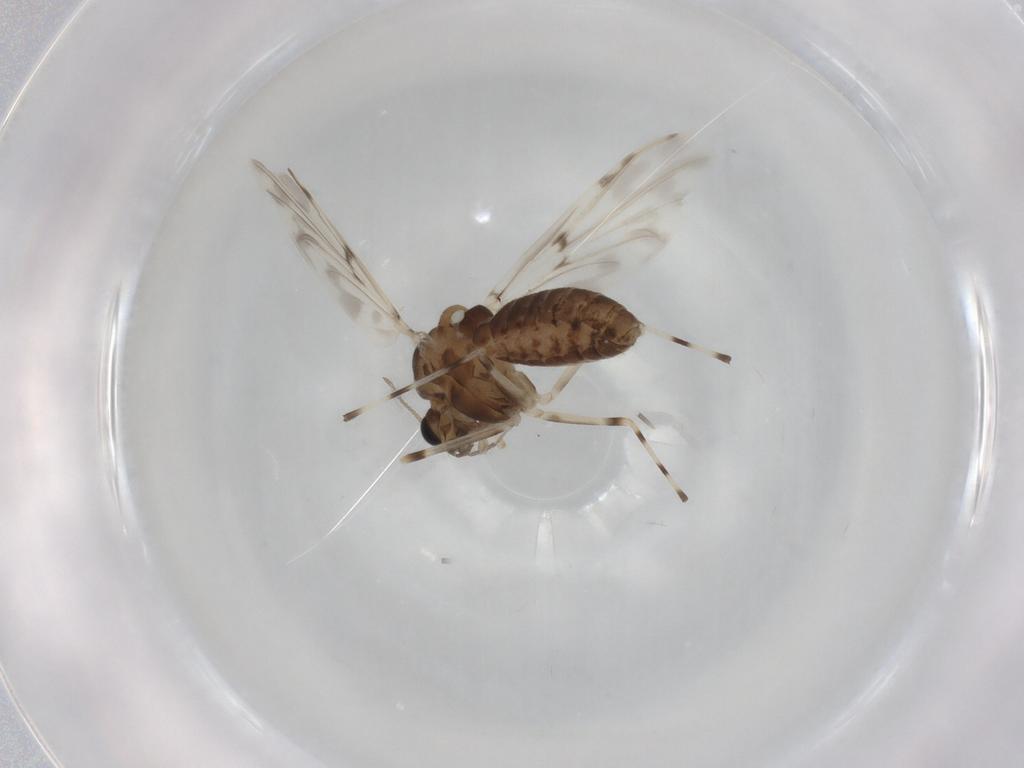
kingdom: Animalia
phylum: Arthropoda
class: Insecta
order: Diptera
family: Chironomidae
